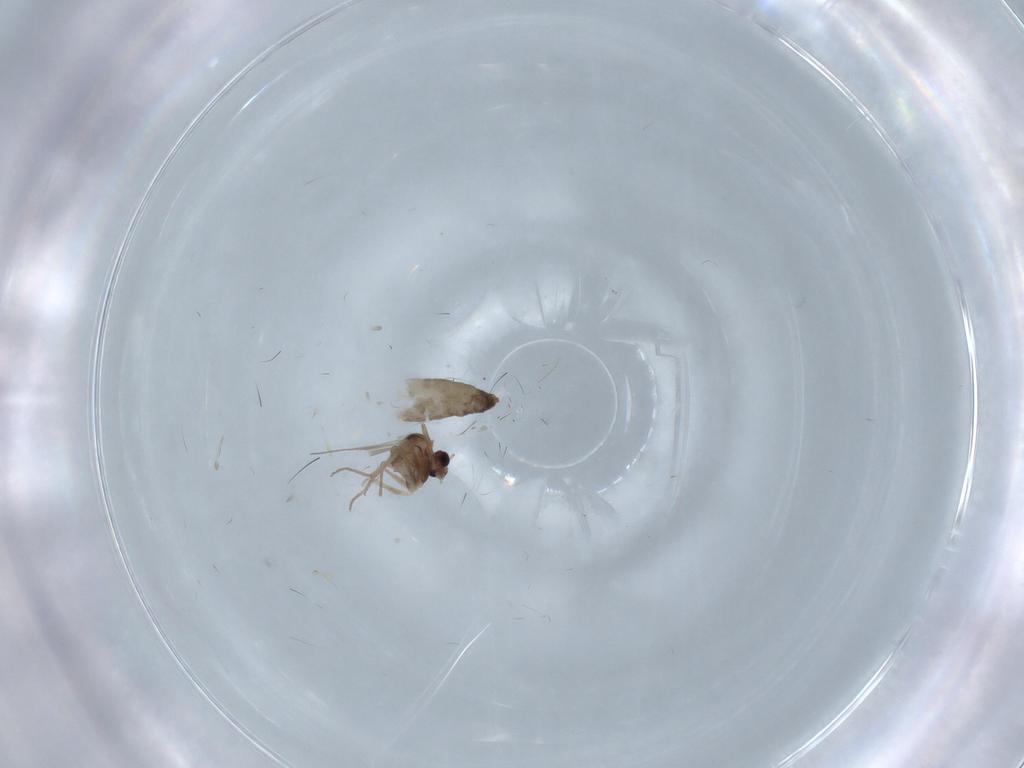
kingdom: Animalia
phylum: Arthropoda
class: Insecta
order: Diptera
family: Chironomidae
